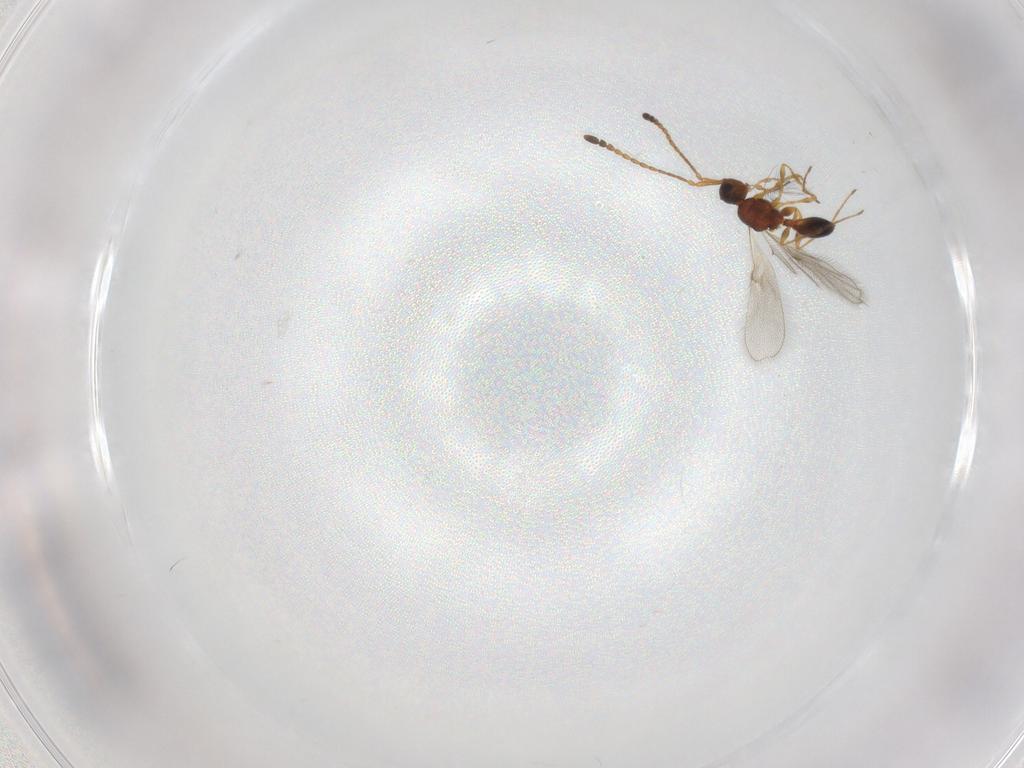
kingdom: Animalia
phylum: Arthropoda
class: Insecta
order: Hymenoptera
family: Diapriidae
